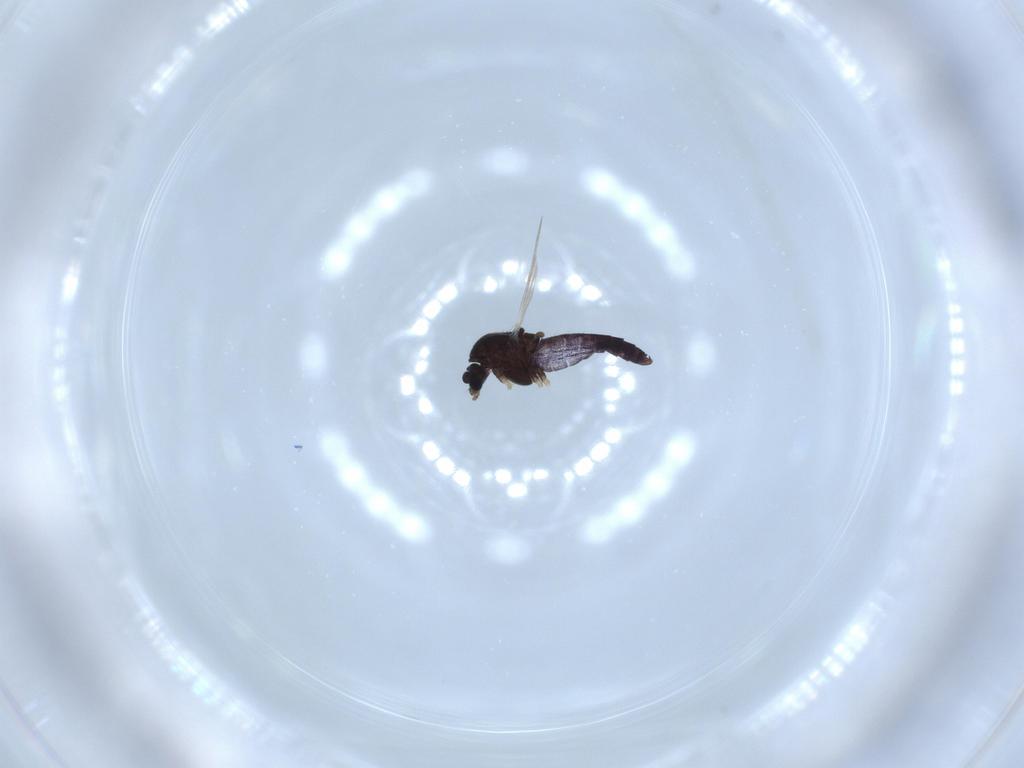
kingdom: Animalia
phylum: Arthropoda
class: Insecta
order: Diptera
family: Chironomidae
